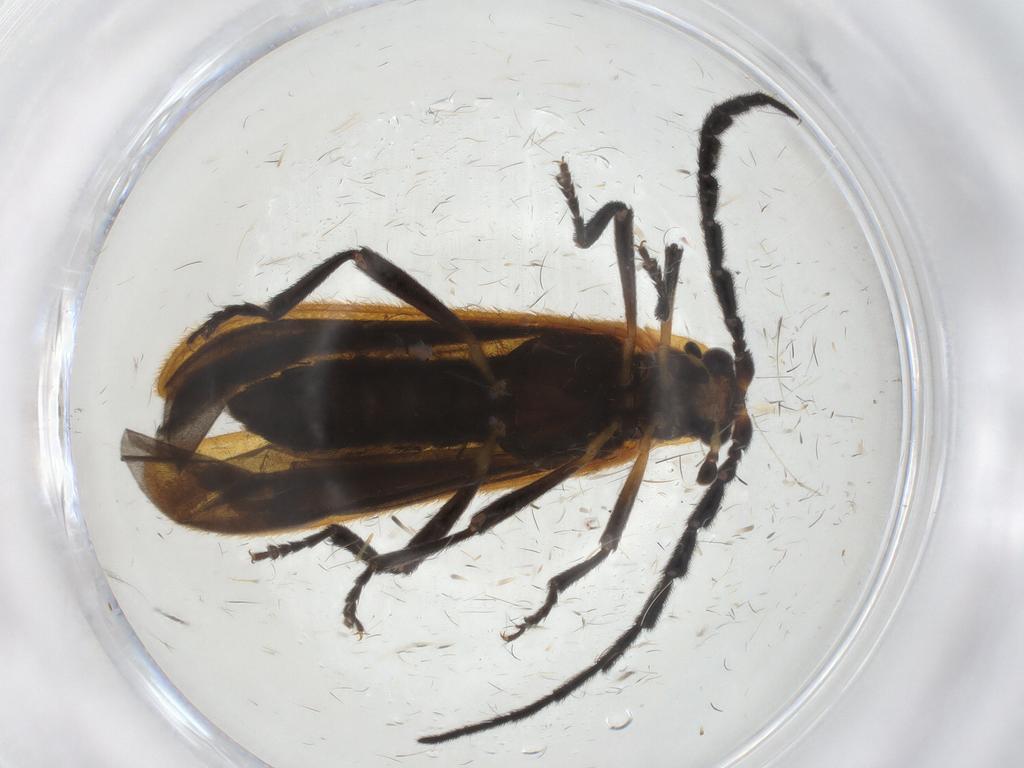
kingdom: Animalia
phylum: Arthropoda
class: Insecta
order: Coleoptera
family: Lycidae
